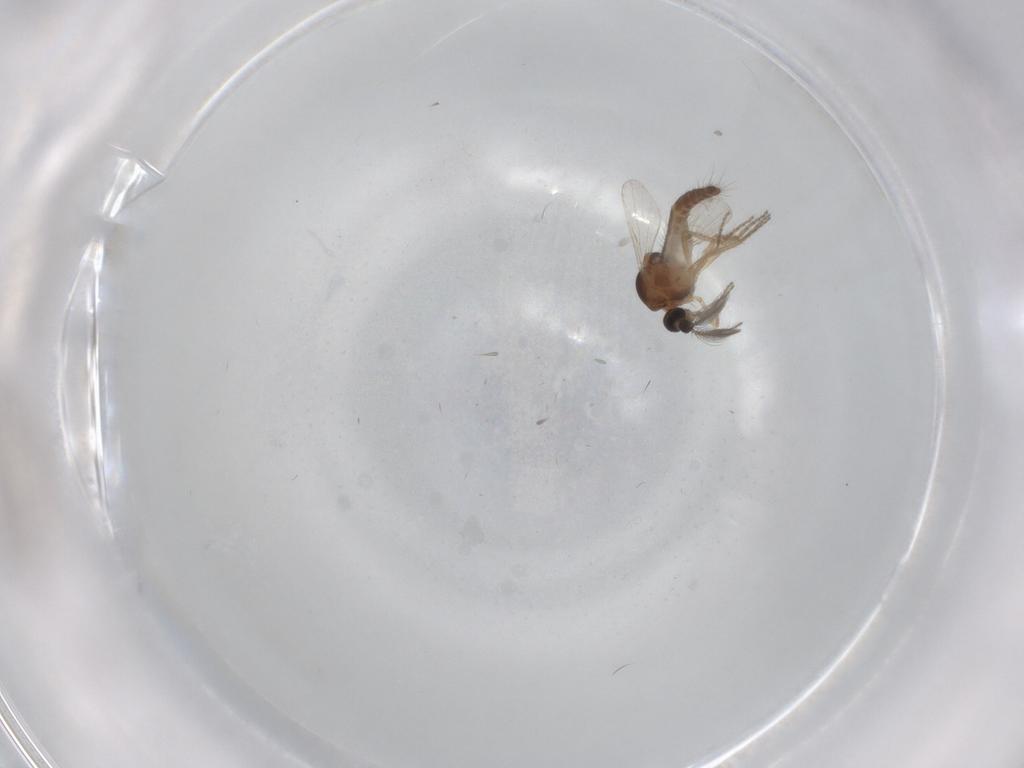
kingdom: Animalia
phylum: Arthropoda
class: Insecta
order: Diptera
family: Ceratopogonidae
